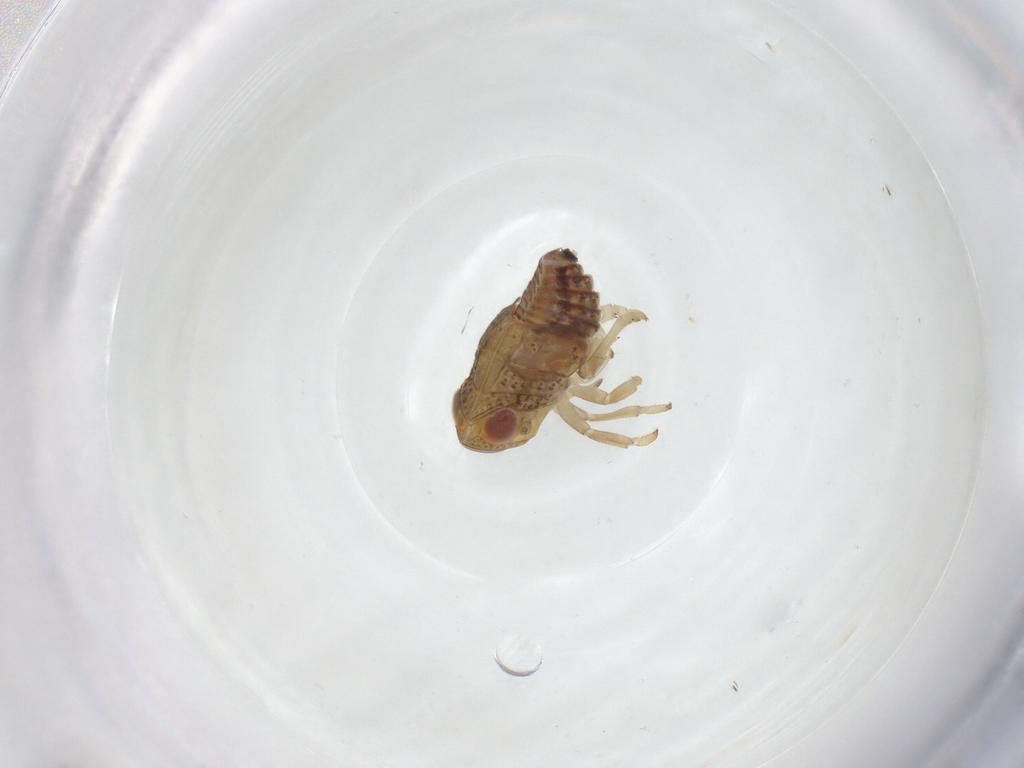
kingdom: Animalia
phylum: Arthropoda
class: Insecta
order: Hemiptera
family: Issidae
